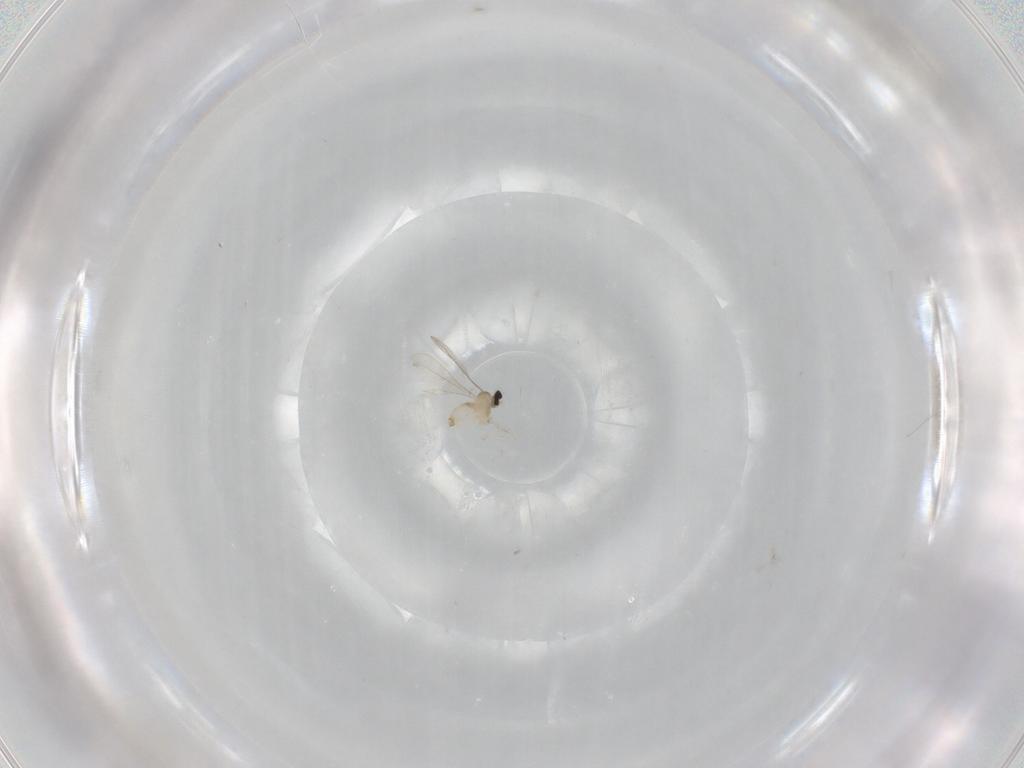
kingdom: Animalia
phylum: Arthropoda
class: Insecta
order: Diptera
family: Cecidomyiidae
